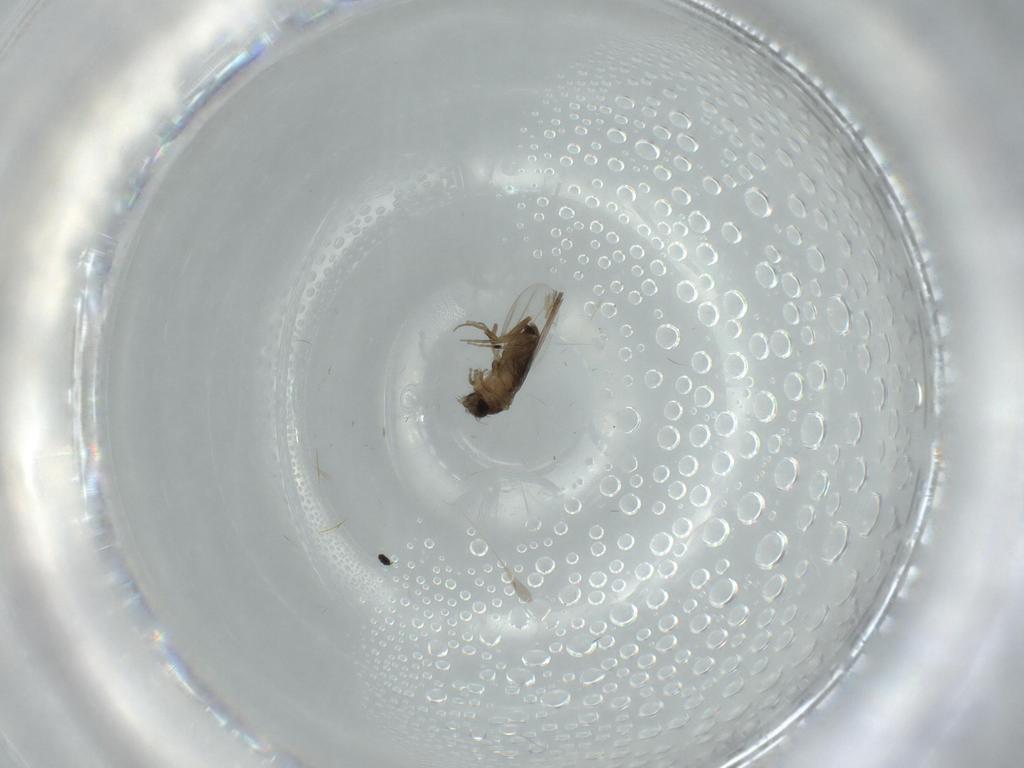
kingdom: Animalia
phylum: Arthropoda
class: Insecta
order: Diptera
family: Phoridae
